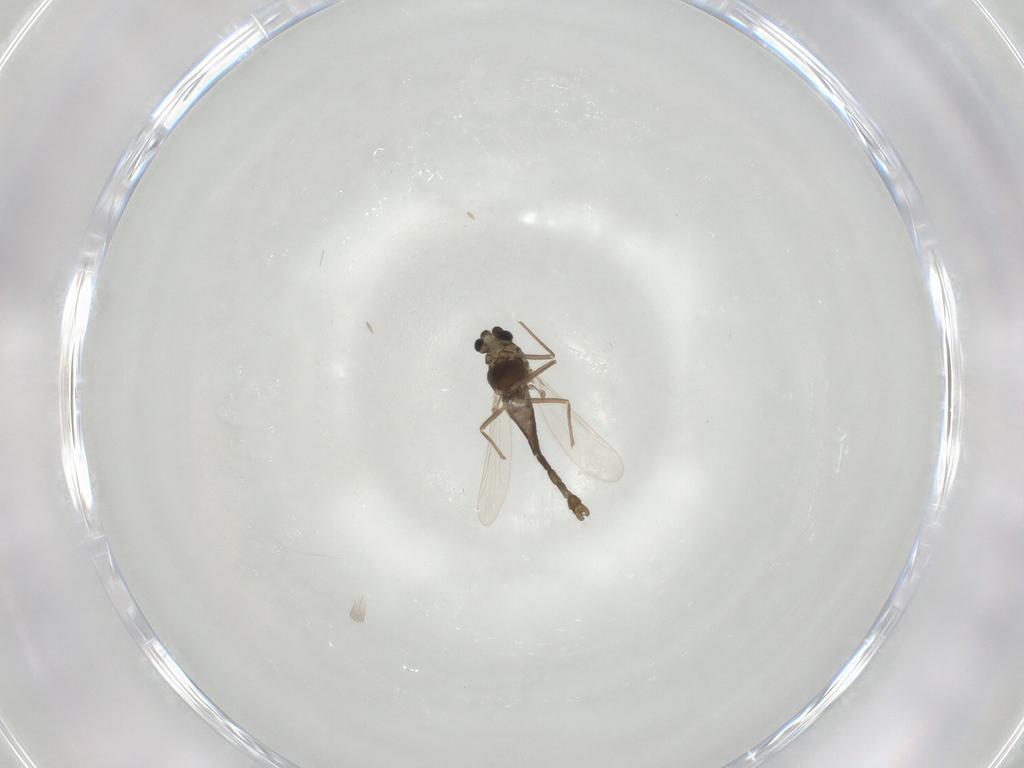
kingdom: Animalia
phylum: Arthropoda
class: Insecta
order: Diptera
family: Chironomidae
